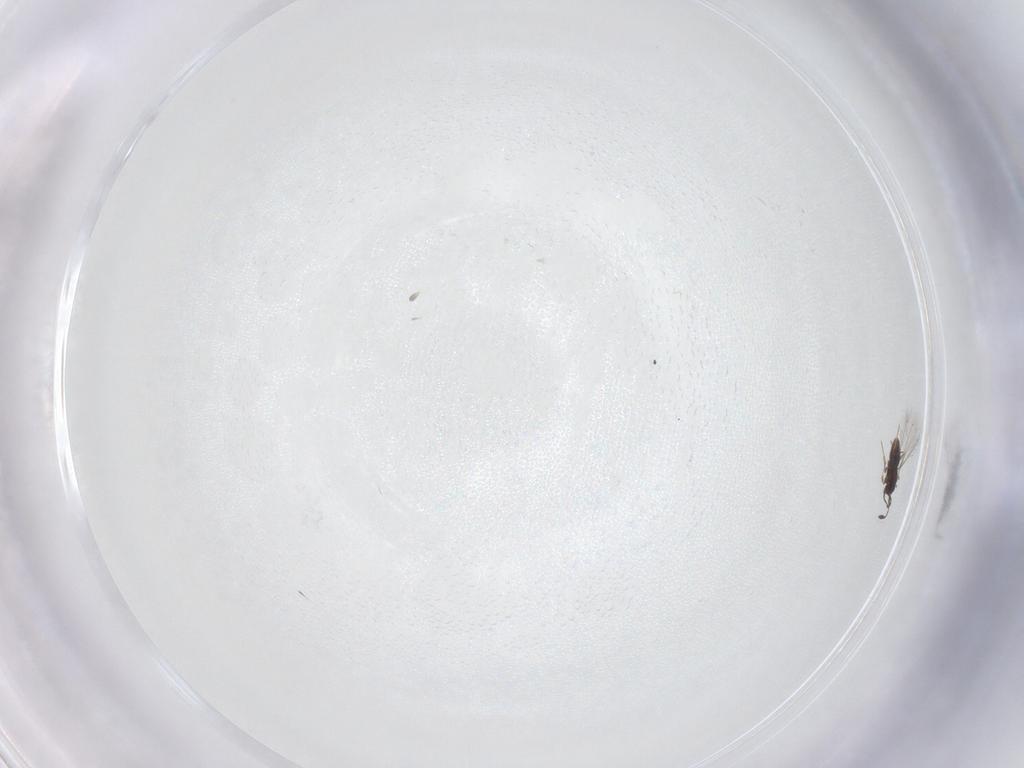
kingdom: Animalia
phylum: Arthropoda
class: Insecta
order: Hymenoptera
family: Mymaridae
